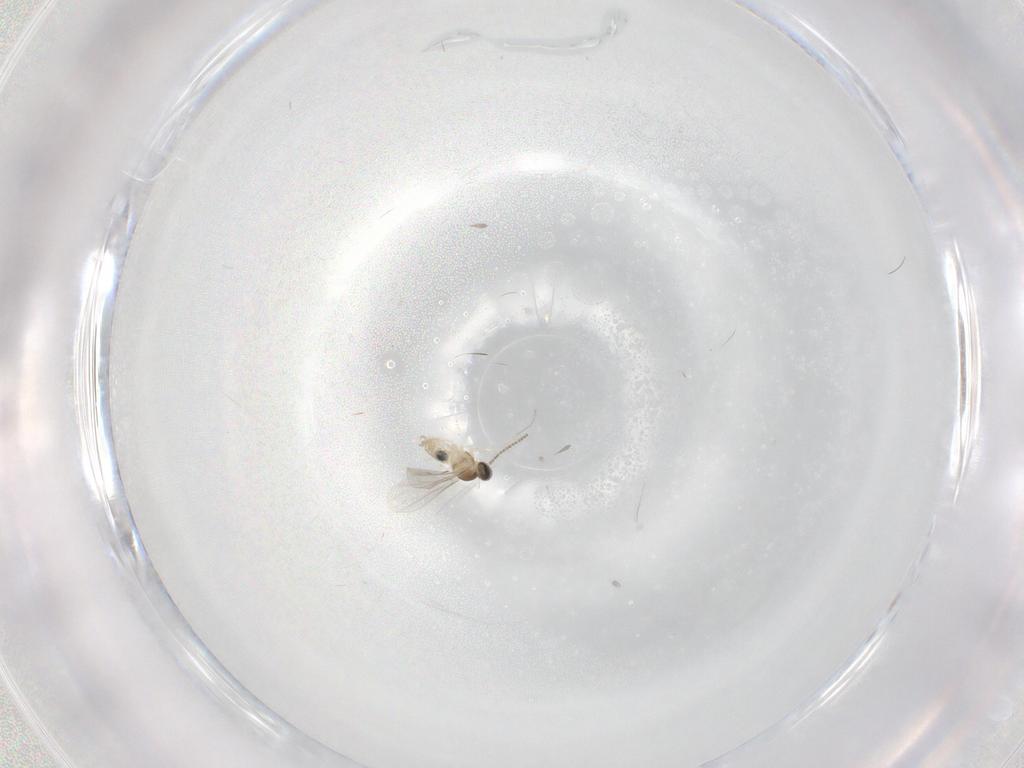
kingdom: Animalia
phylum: Arthropoda
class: Insecta
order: Diptera
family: Cecidomyiidae
